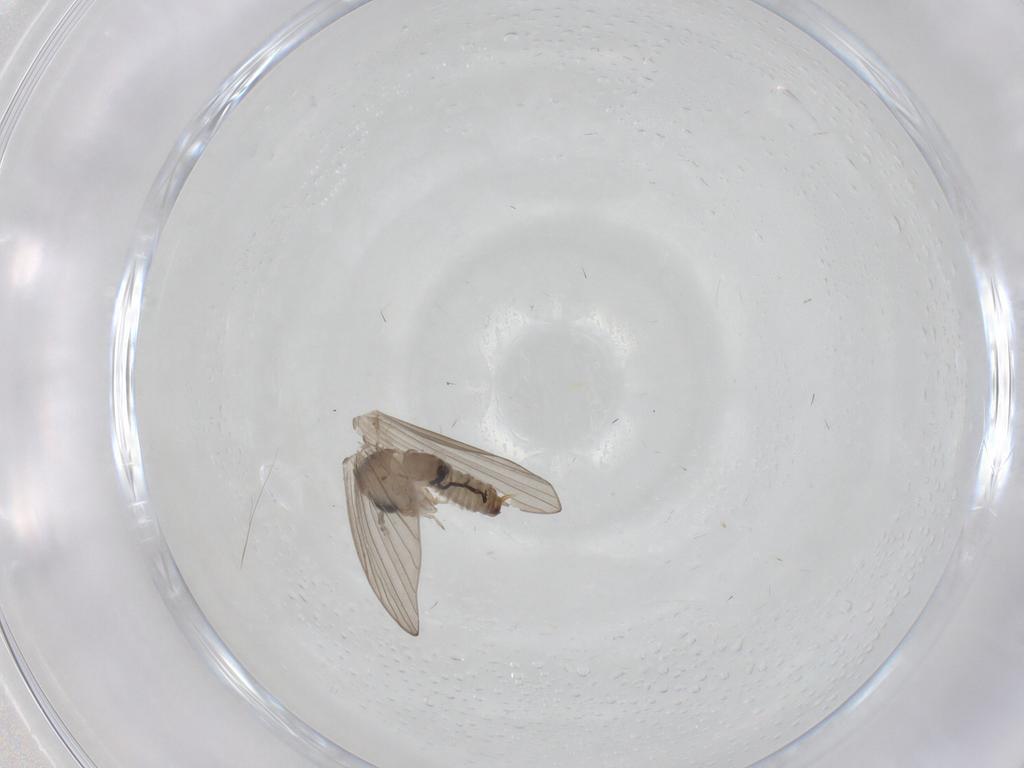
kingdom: Animalia
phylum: Arthropoda
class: Insecta
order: Diptera
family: Psychodidae
